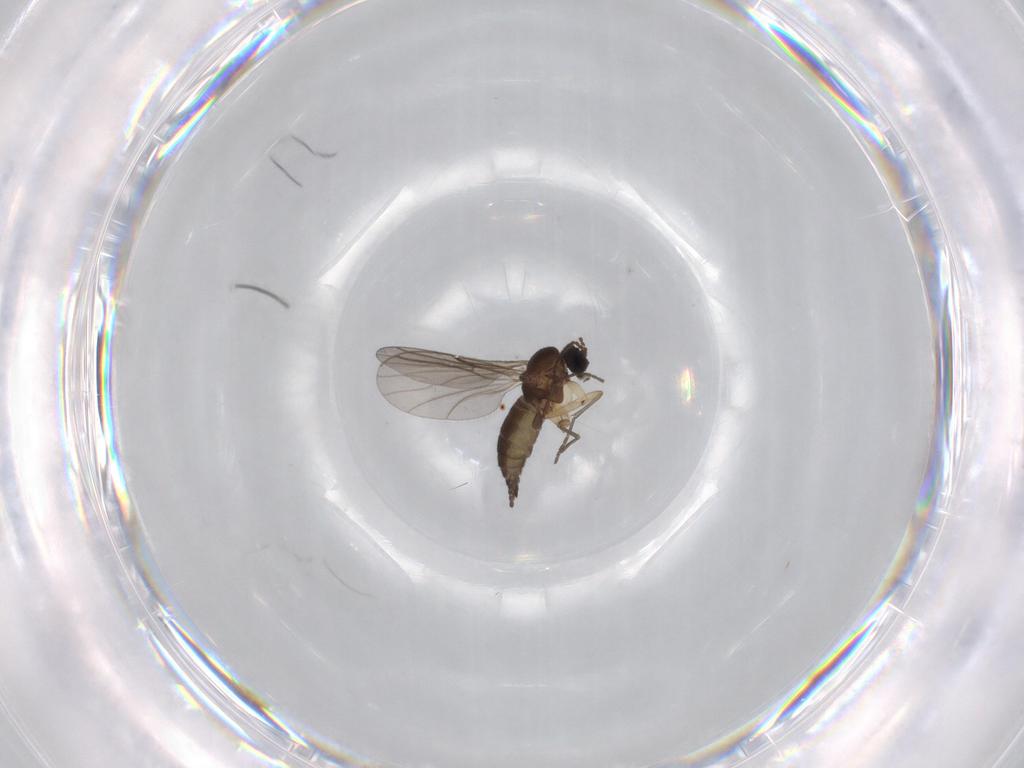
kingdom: Animalia
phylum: Arthropoda
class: Insecta
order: Diptera
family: Sciaridae
